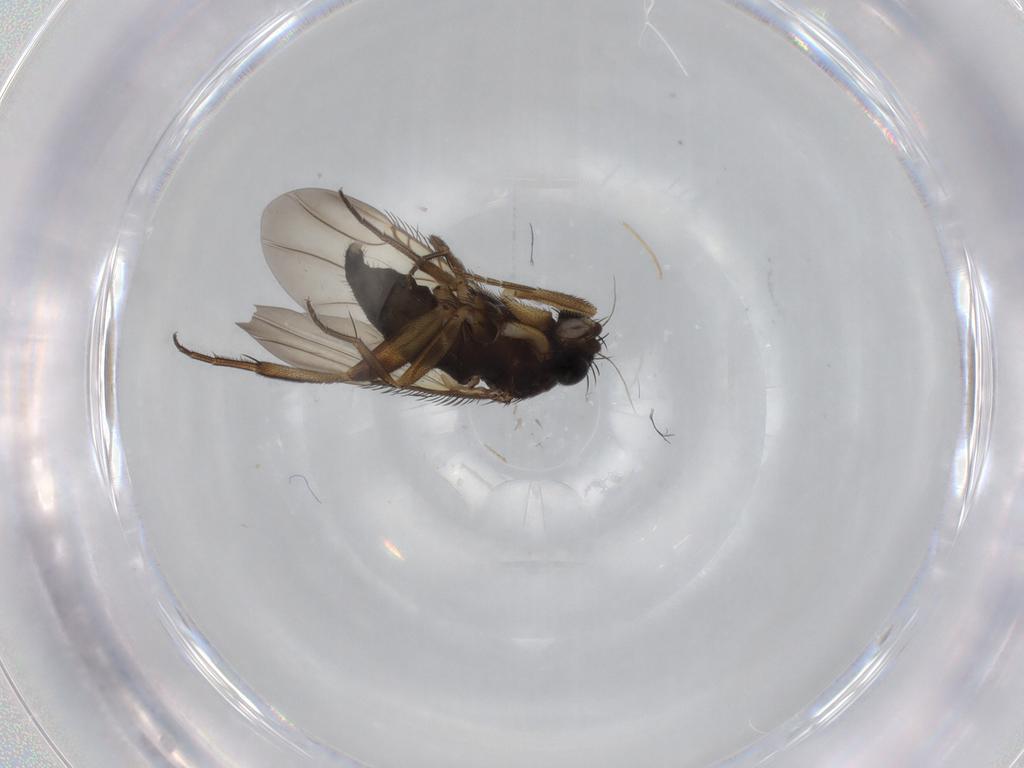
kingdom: Animalia
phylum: Arthropoda
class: Insecta
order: Diptera
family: Phoridae
